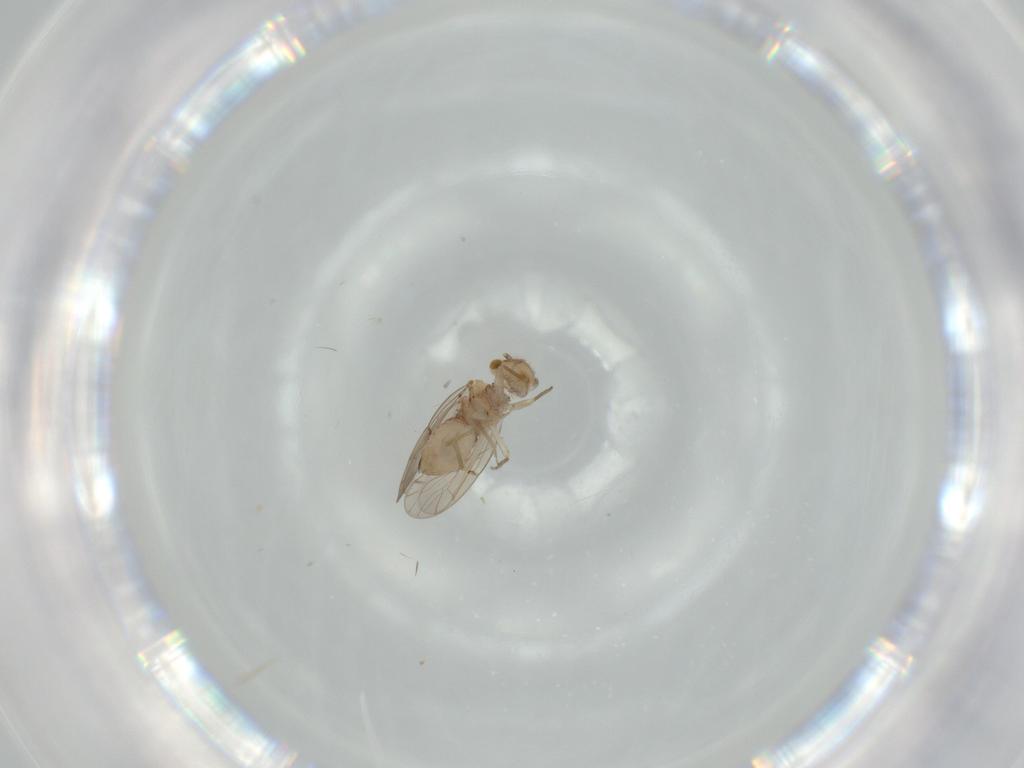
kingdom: Animalia
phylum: Arthropoda
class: Insecta
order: Psocodea
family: Ectopsocidae
